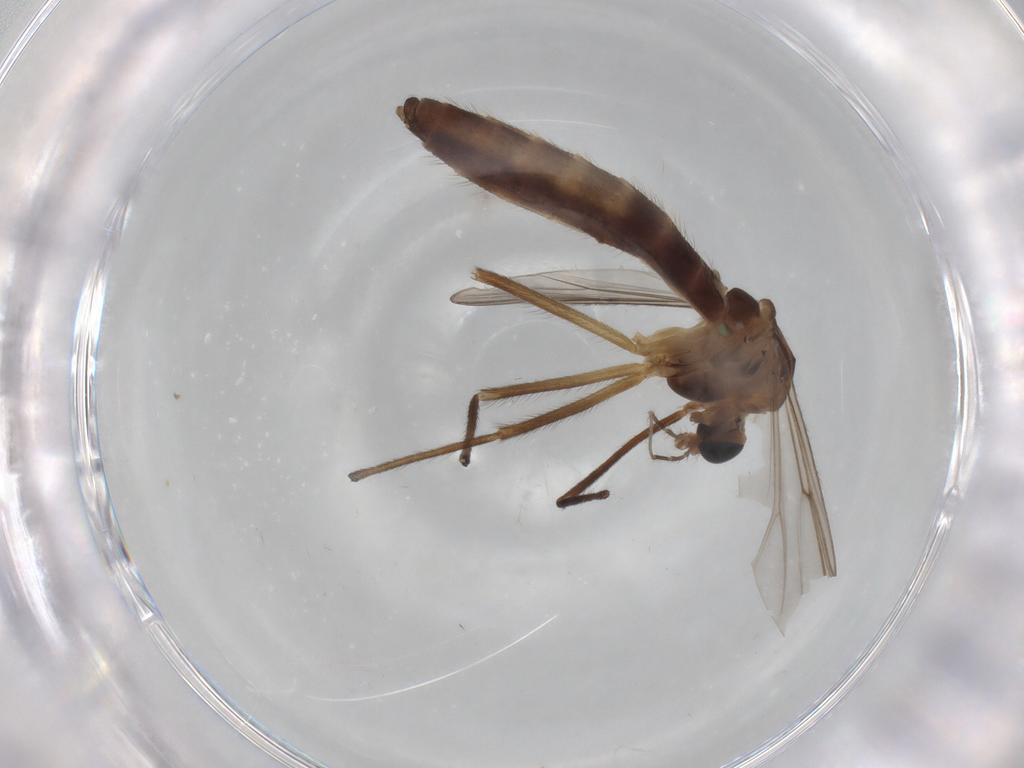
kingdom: Animalia
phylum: Arthropoda
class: Insecta
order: Diptera
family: Chironomidae
